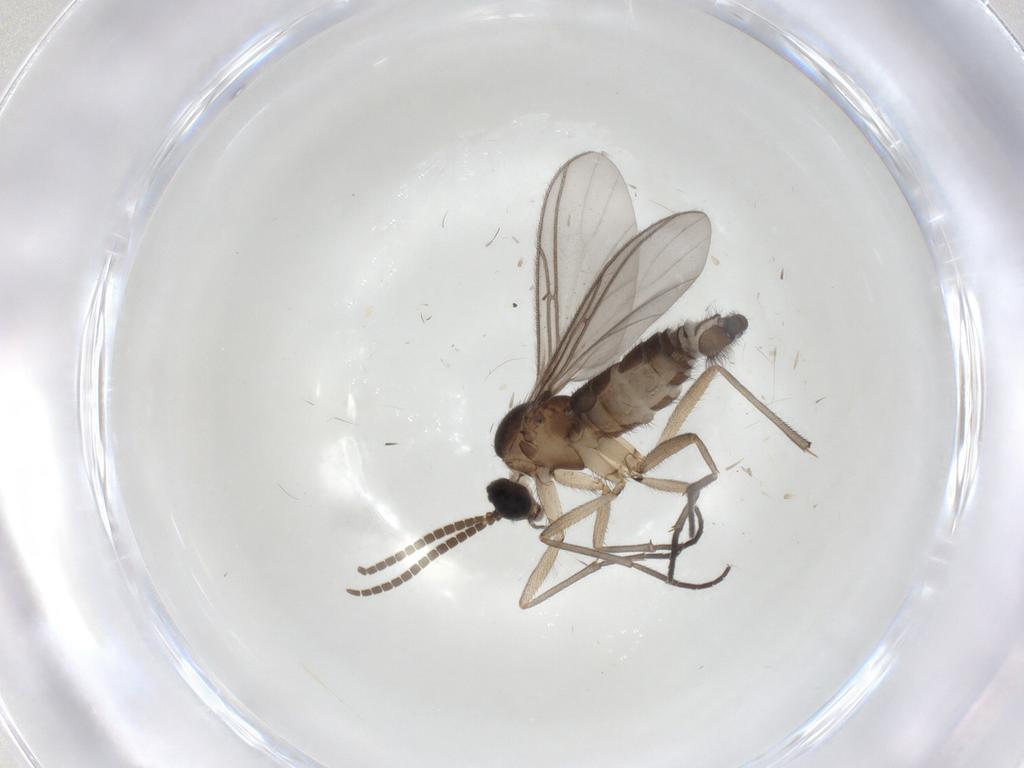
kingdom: Animalia
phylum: Arthropoda
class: Insecta
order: Diptera
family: Sciaridae
